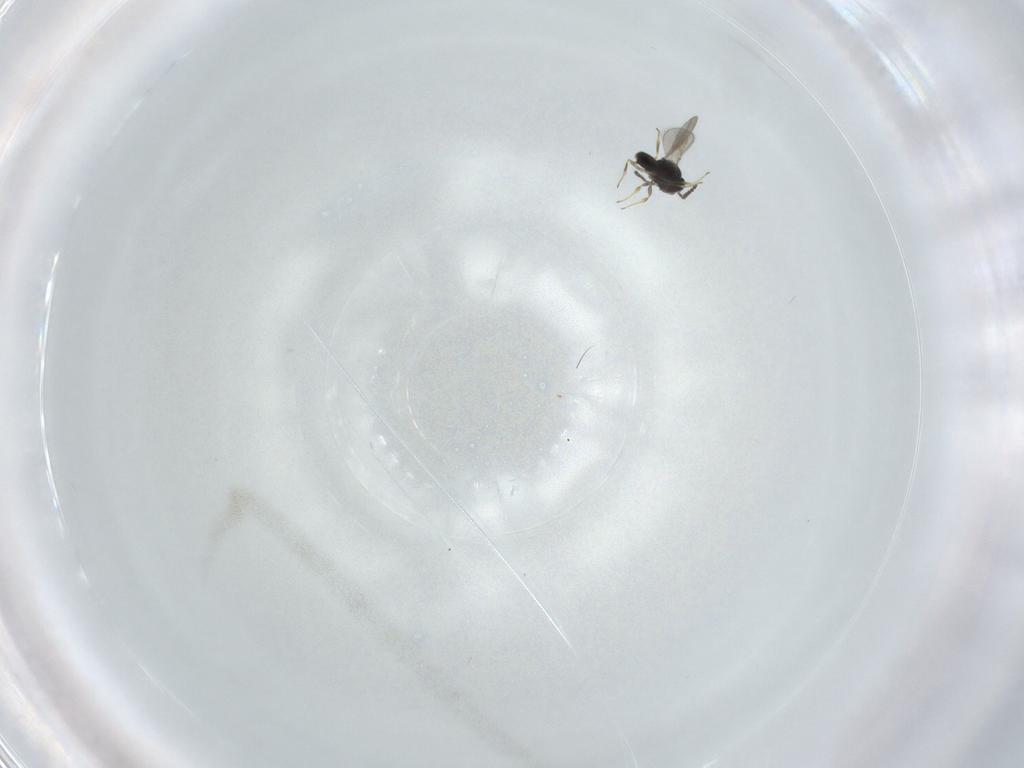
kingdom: Animalia
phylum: Arthropoda
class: Insecta
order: Hymenoptera
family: Scelionidae
